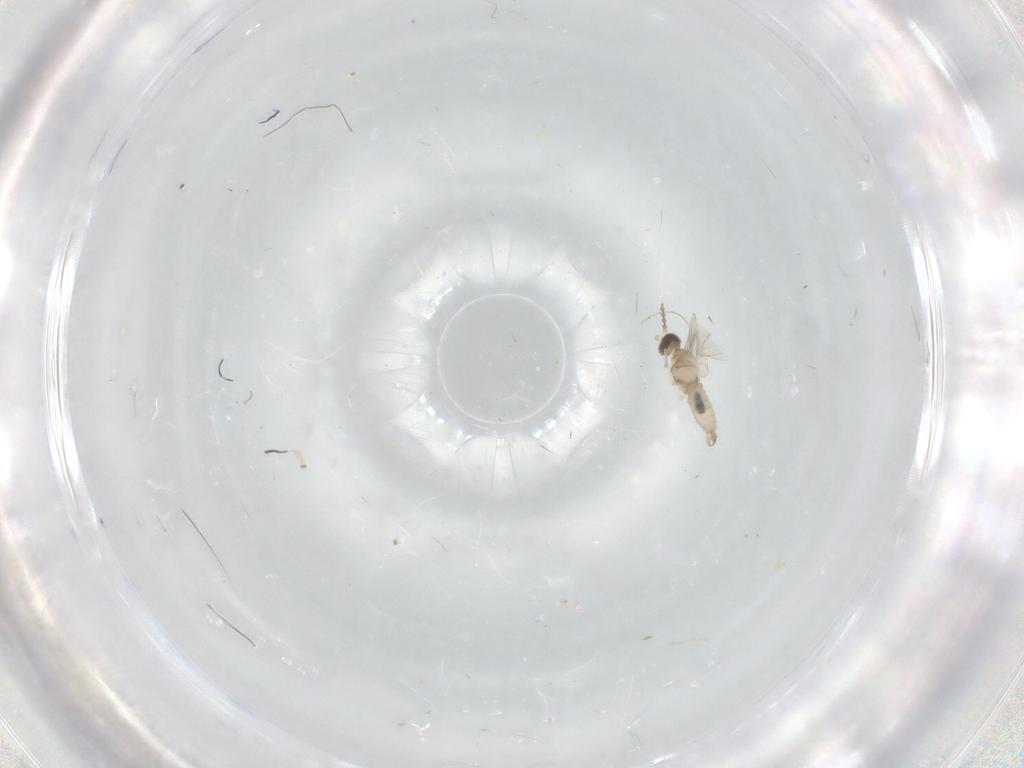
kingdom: Animalia
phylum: Arthropoda
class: Insecta
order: Diptera
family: Cecidomyiidae
